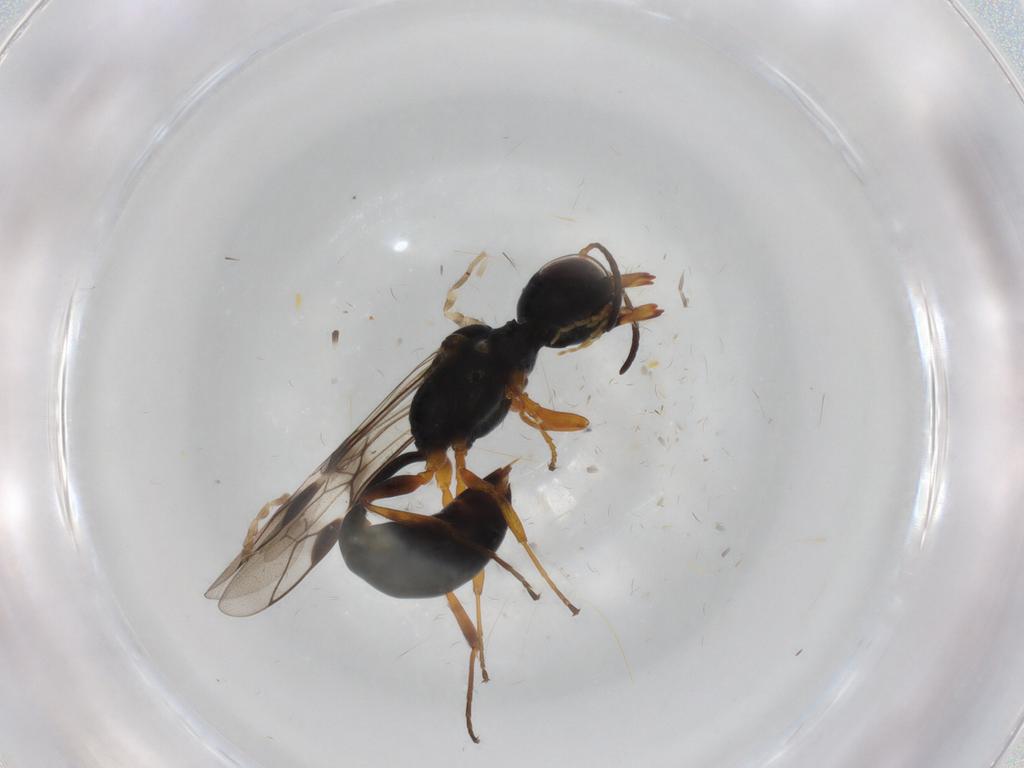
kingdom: Animalia
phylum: Arthropoda
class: Insecta
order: Hymenoptera
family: Pemphredonidae
